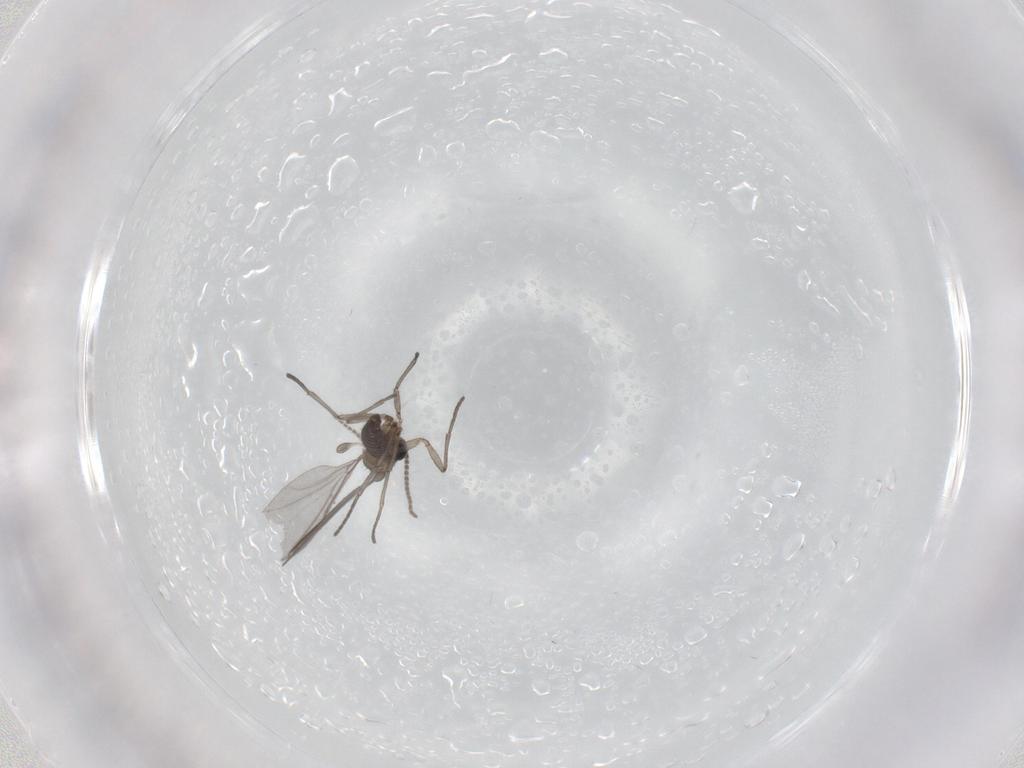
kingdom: Animalia
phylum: Arthropoda
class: Insecta
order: Diptera
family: Sciaridae
